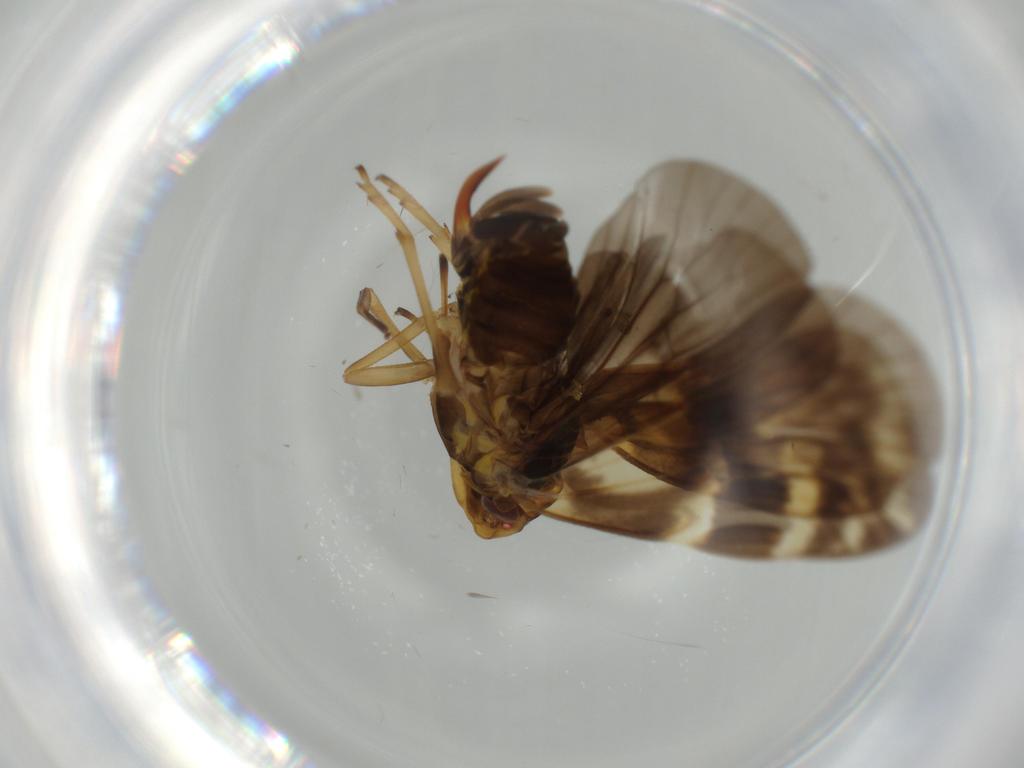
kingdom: Animalia
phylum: Arthropoda
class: Insecta
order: Hemiptera
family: Cixiidae
